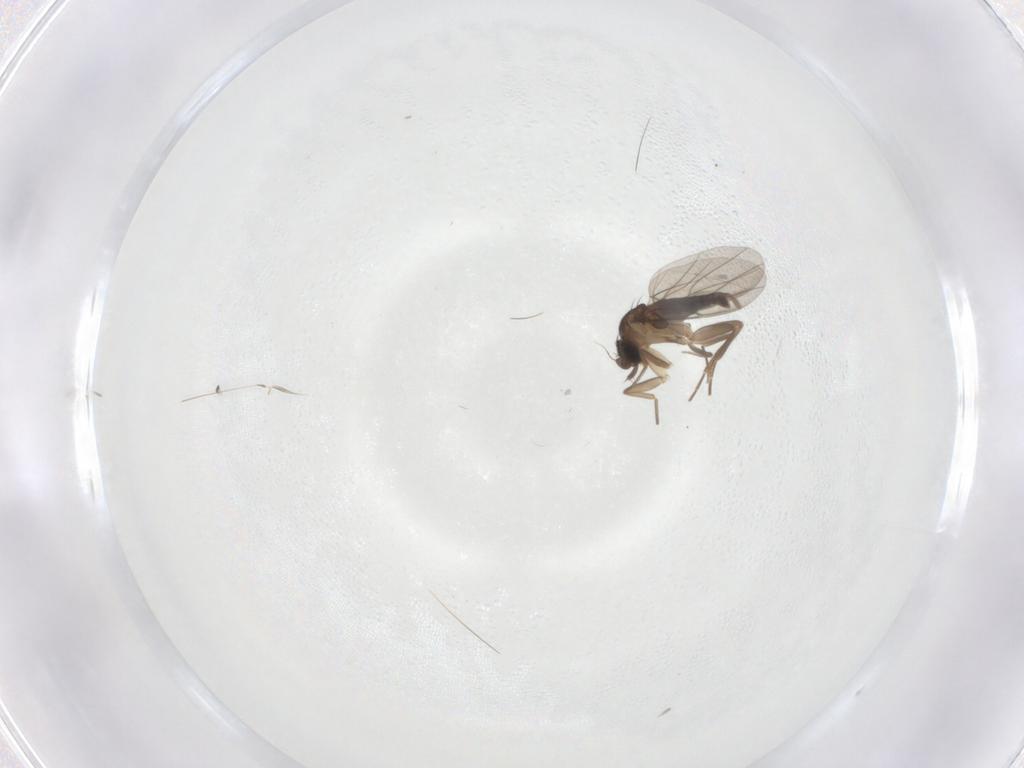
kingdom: Animalia
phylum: Arthropoda
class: Insecta
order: Diptera
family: Phoridae
